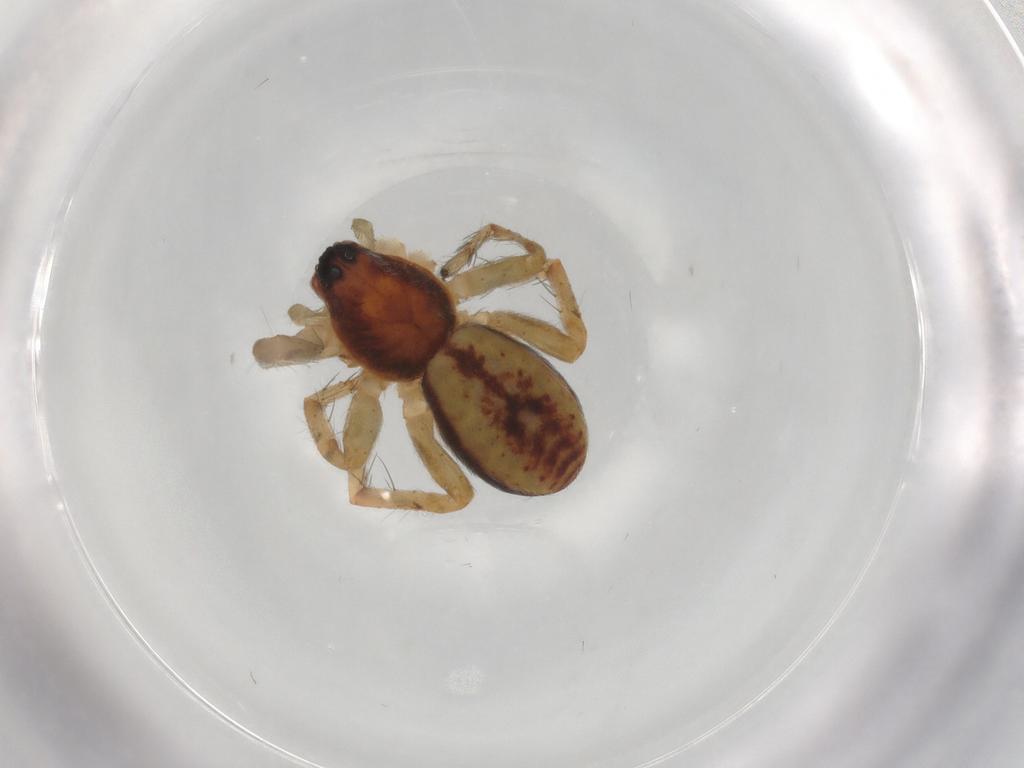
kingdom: Animalia
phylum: Arthropoda
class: Arachnida
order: Araneae
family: Anyphaenidae
